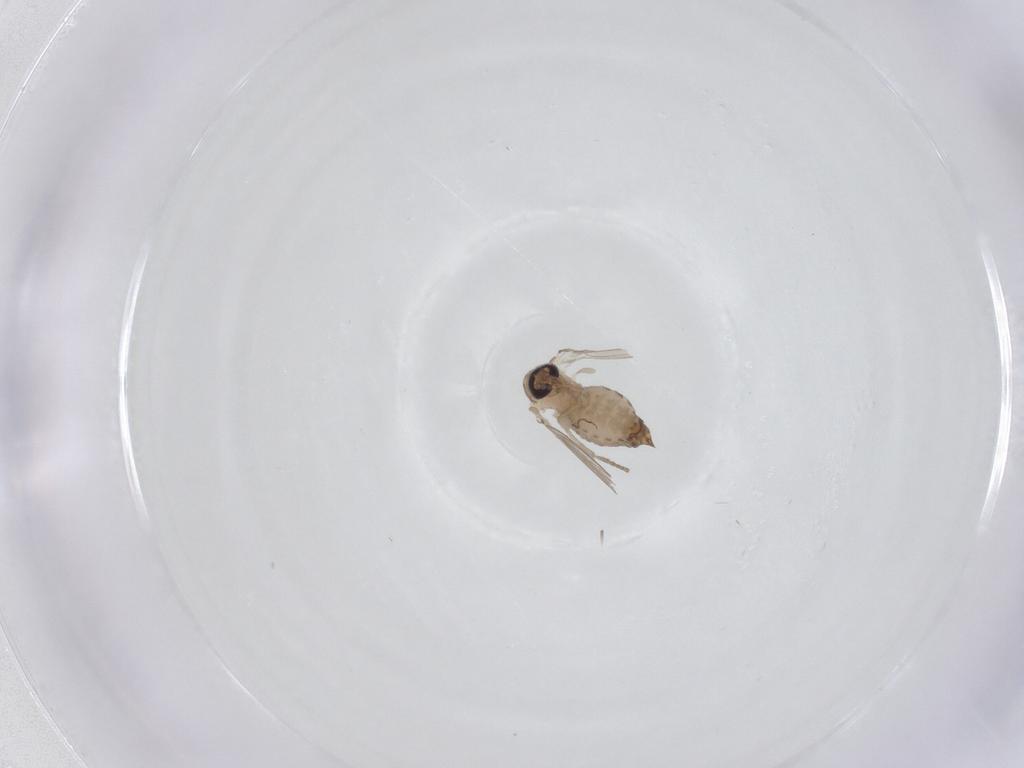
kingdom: Animalia
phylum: Arthropoda
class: Insecta
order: Diptera
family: Psychodidae
